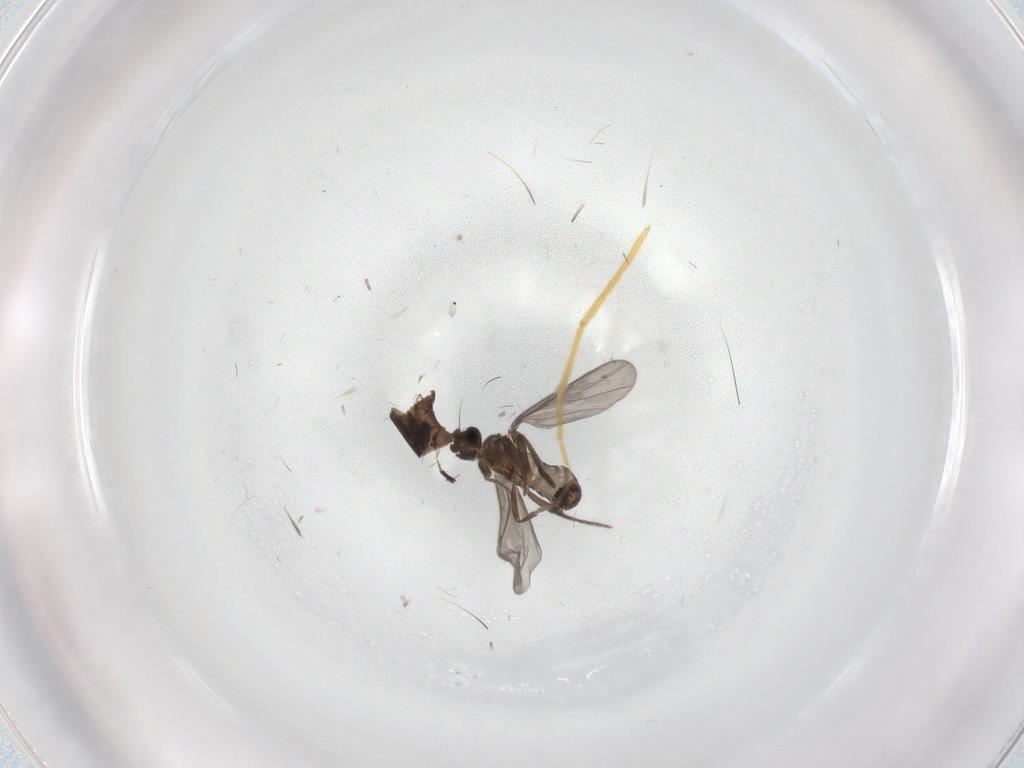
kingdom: Animalia
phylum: Arthropoda
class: Insecta
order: Diptera
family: Phoridae
